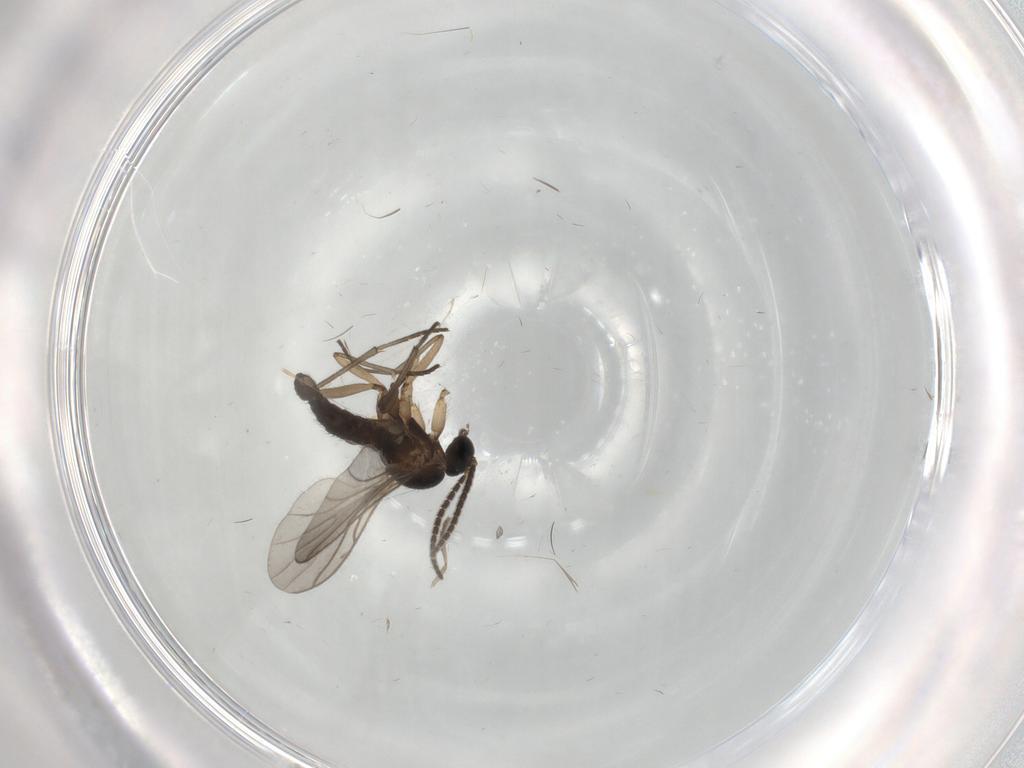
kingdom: Animalia
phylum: Arthropoda
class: Insecta
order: Diptera
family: Sciaridae
